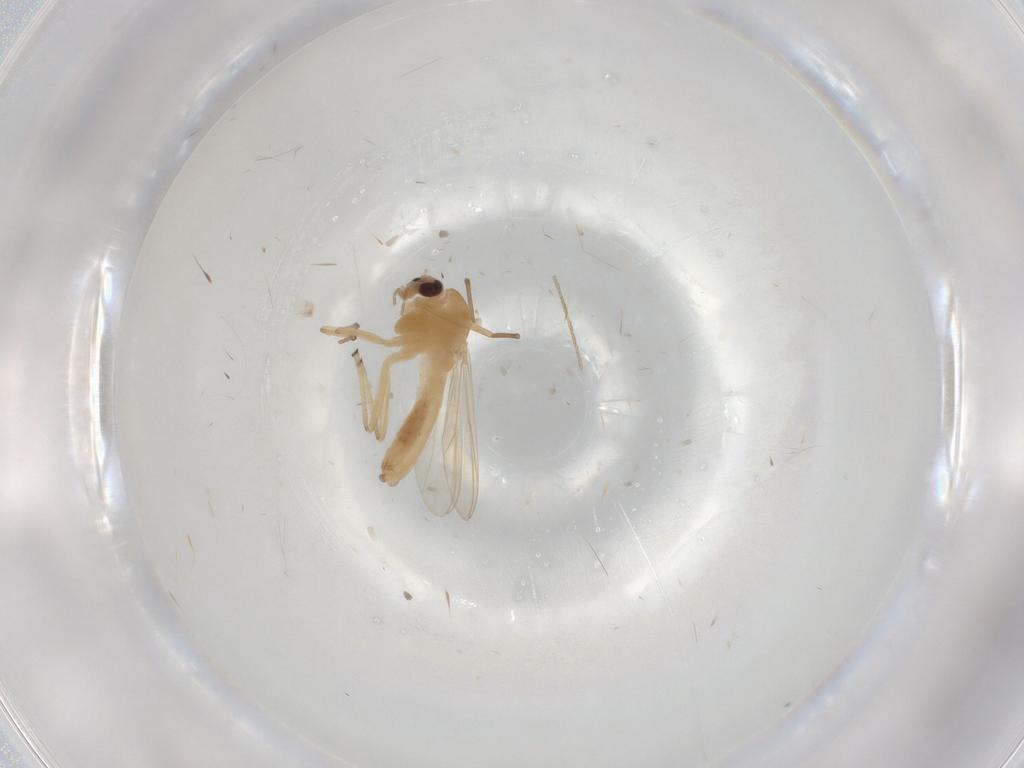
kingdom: Animalia
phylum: Arthropoda
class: Insecta
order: Diptera
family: Chironomidae
